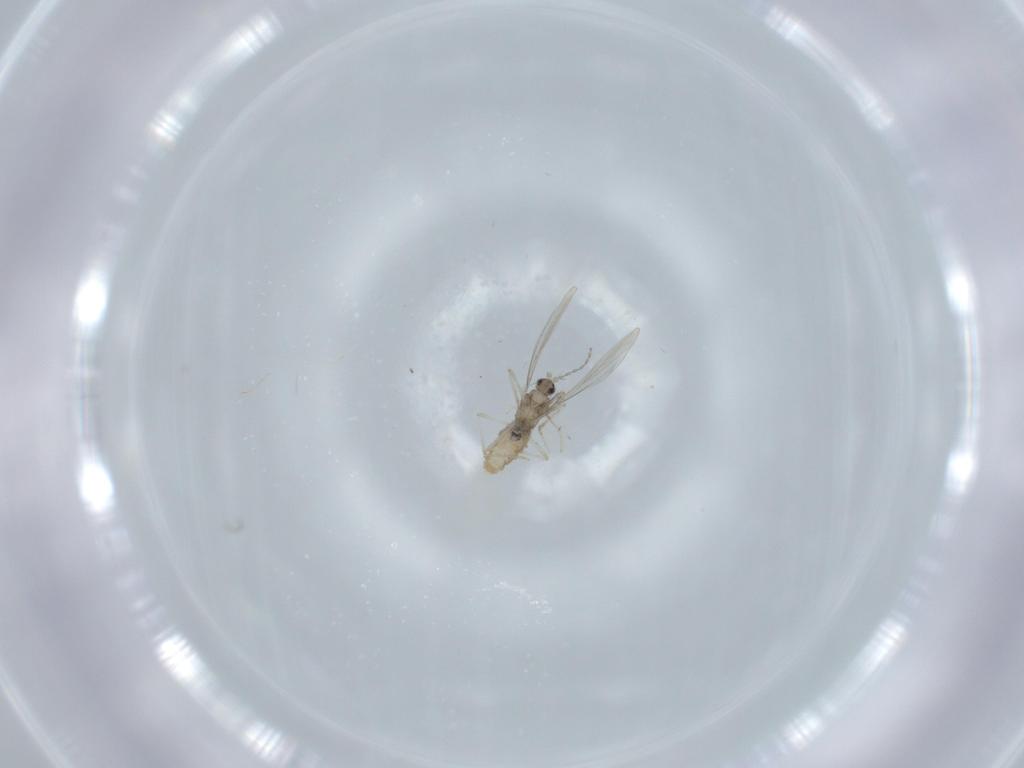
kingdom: Animalia
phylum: Arthropoda
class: Insecta
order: Diptera
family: Cecidomyiidae
